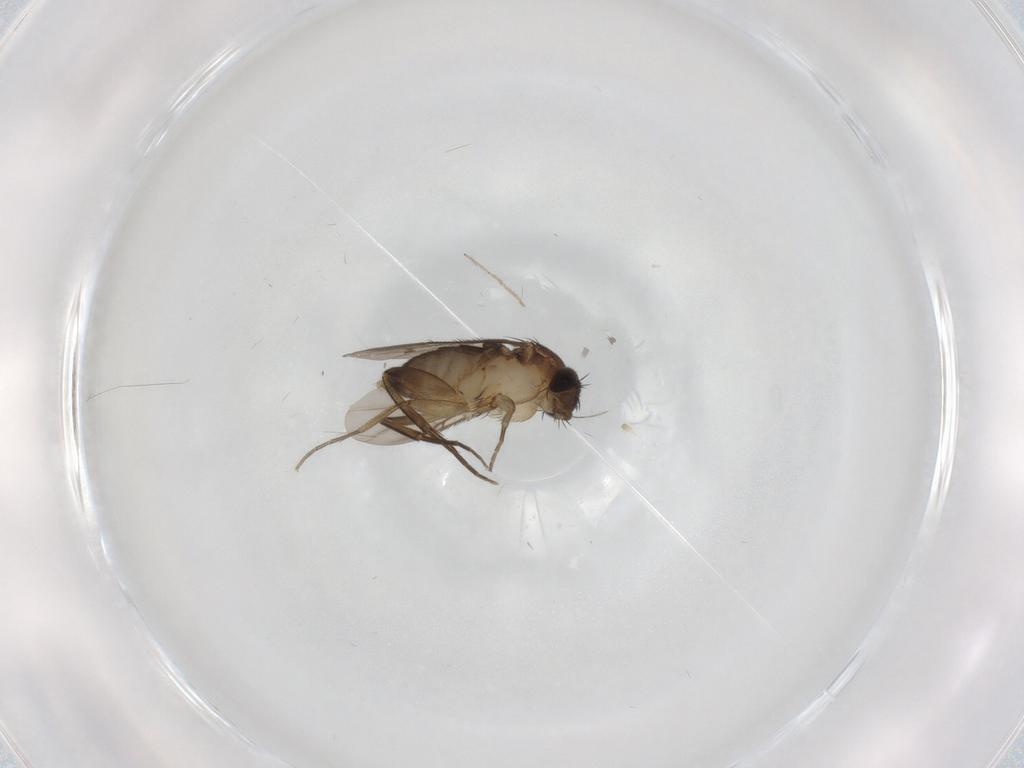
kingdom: Animalia
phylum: Arthropoda
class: Insecta
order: Diptera
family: Phoridae
